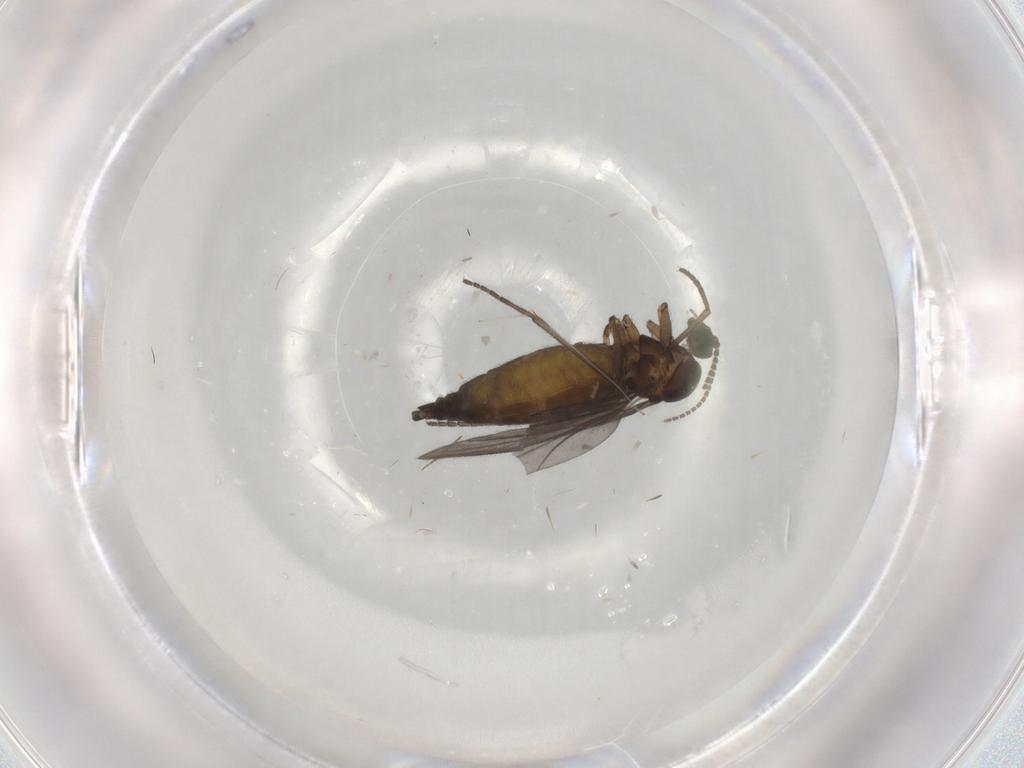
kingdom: Animalia
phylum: Arthropoda
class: Insecta
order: Diptera
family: Sciaridae
